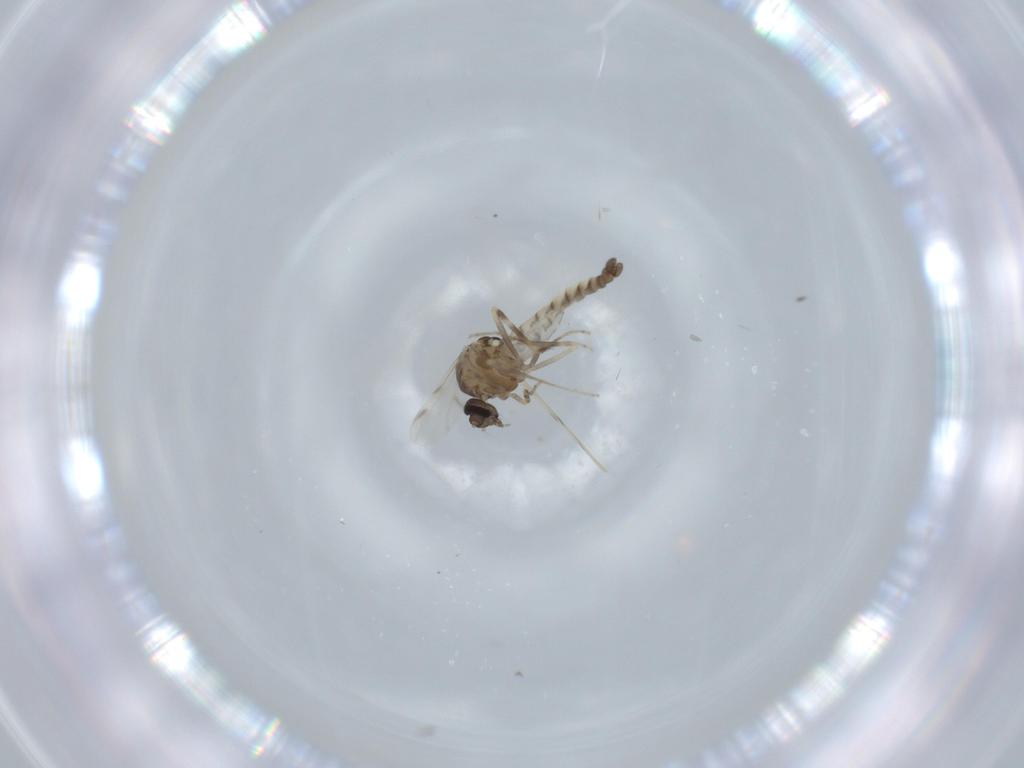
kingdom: Animalia
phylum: Arthropoda
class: Insecta
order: Diptera
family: Ceratopogonidae
